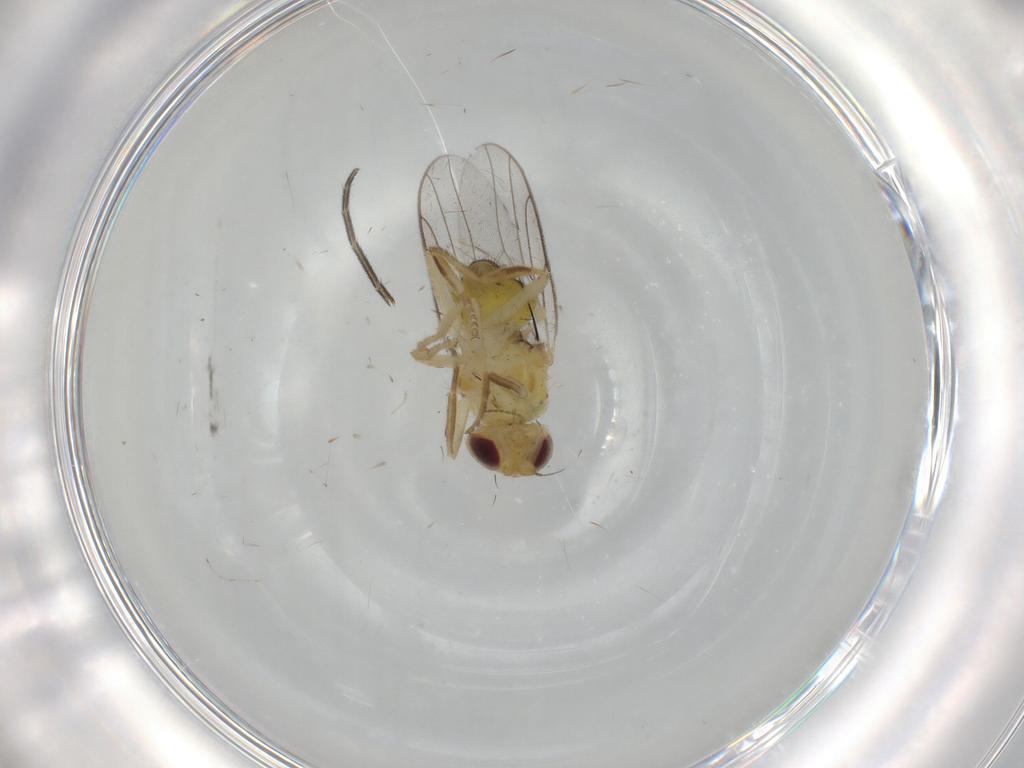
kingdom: Animalia
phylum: Arthropoda
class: Insecta
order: Diptera
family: Chloropidae
